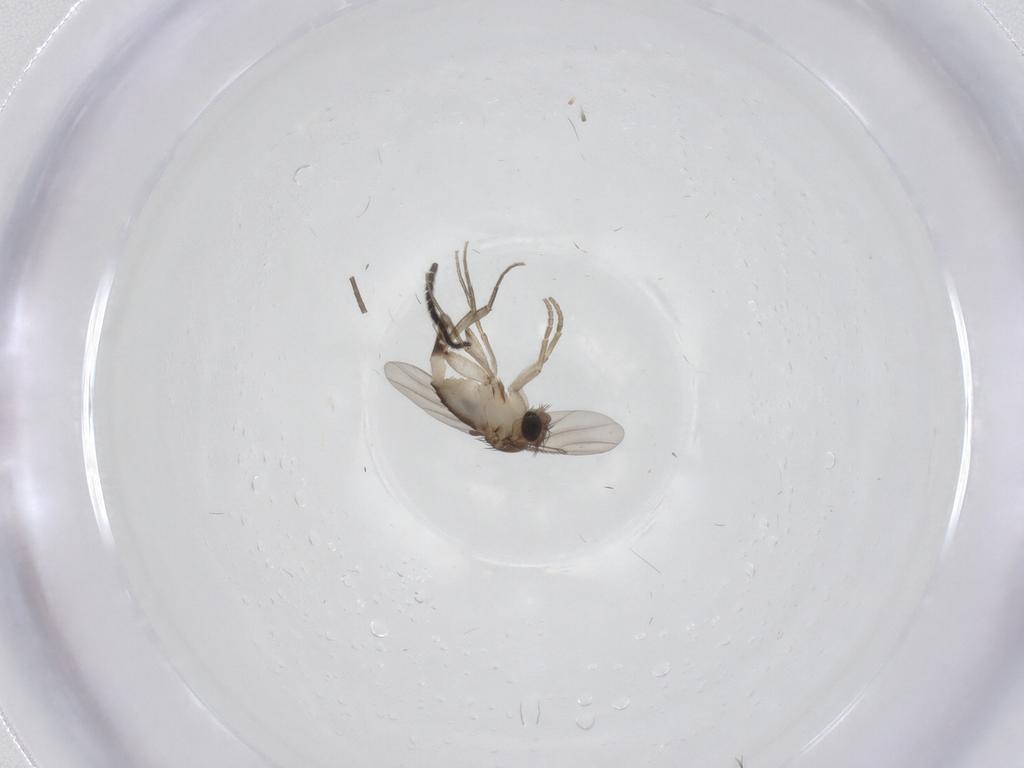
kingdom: Animalia
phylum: Arthropoda
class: Insecta
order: Diptera
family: Phoridae
